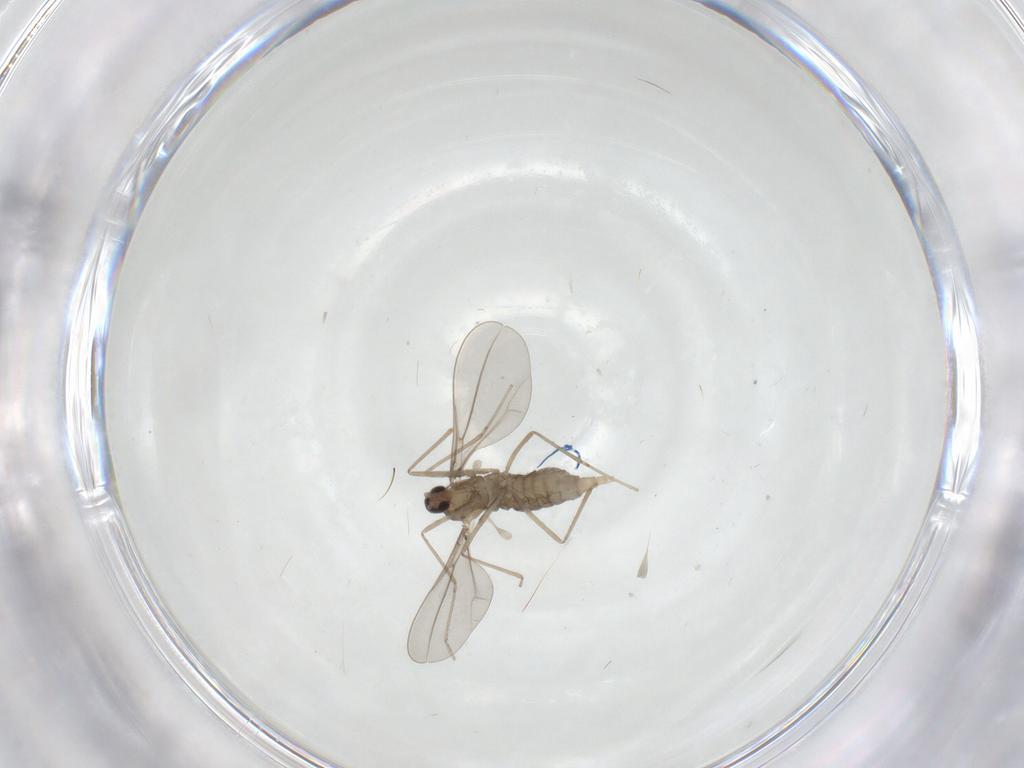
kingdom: Animalia
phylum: Arthropoda
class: Insecta
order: Diptera
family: Cecidomyiidae
